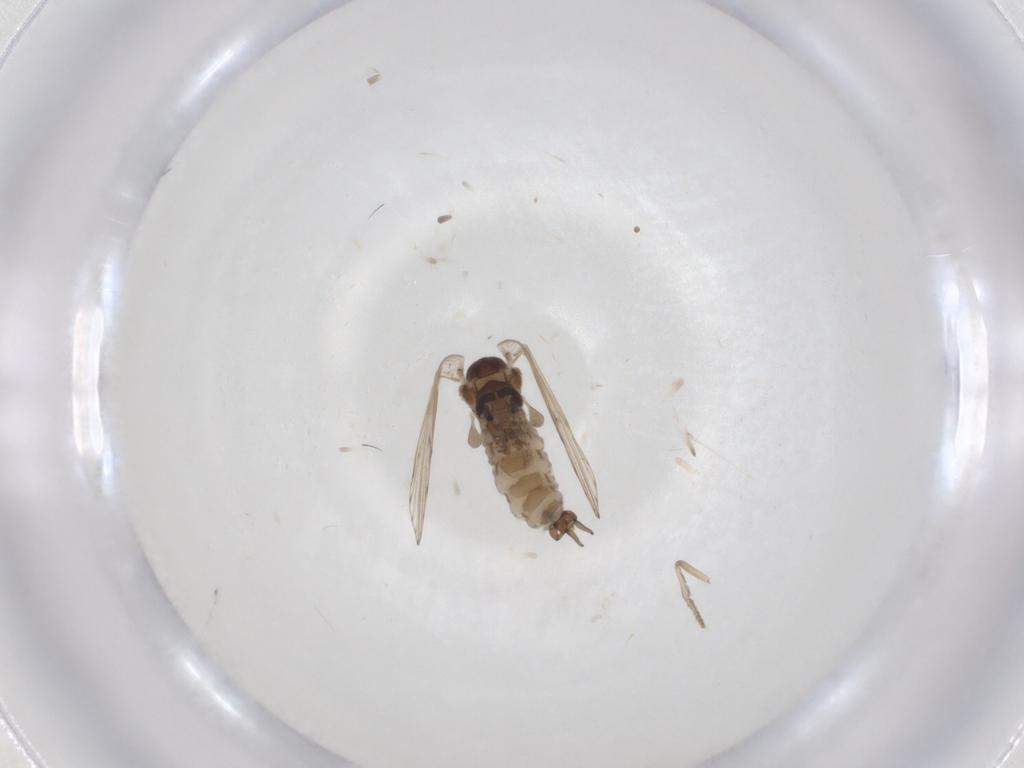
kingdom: Animalia
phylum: Arthropoda
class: Insecta
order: Diptera
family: Psychodidae
